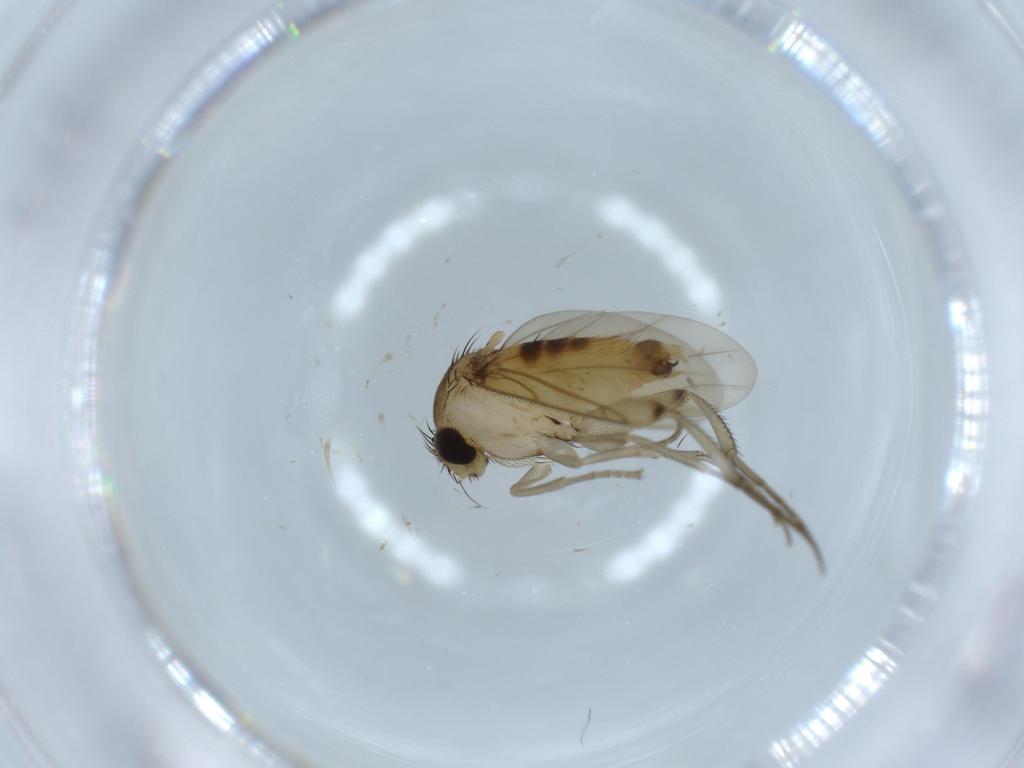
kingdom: Animalia
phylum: Arthropoda
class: Insecta
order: Diptera
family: Phoridae
